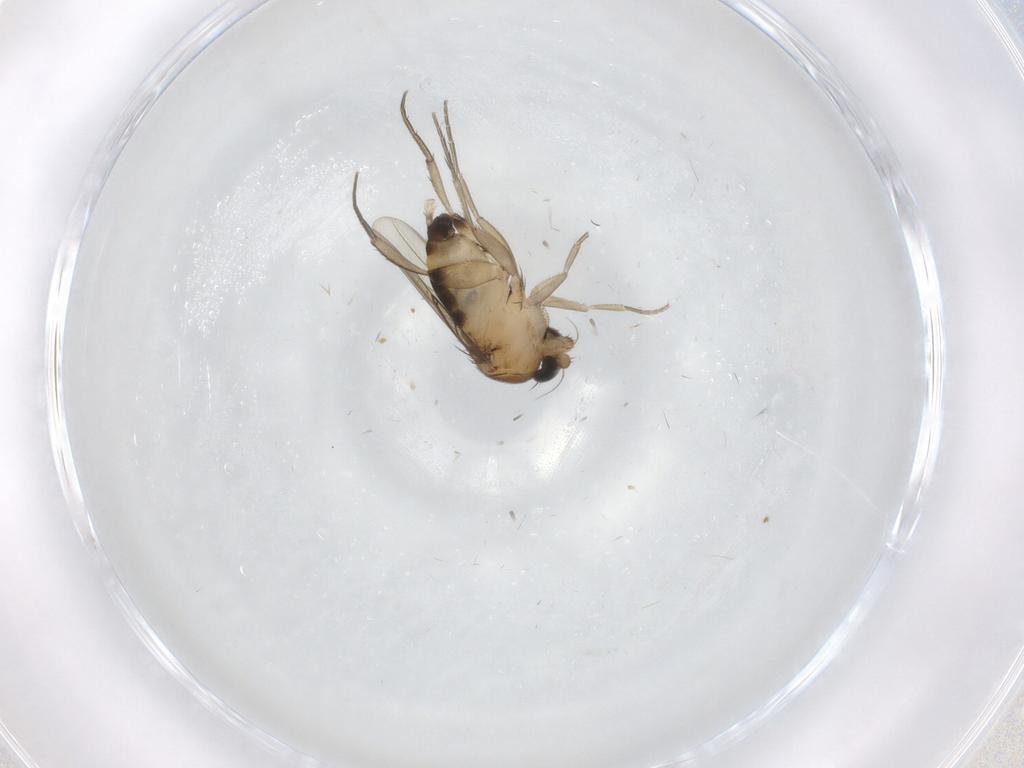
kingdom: Animalia
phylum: Arthropoda
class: Insecta
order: Diptera
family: Phoridae
